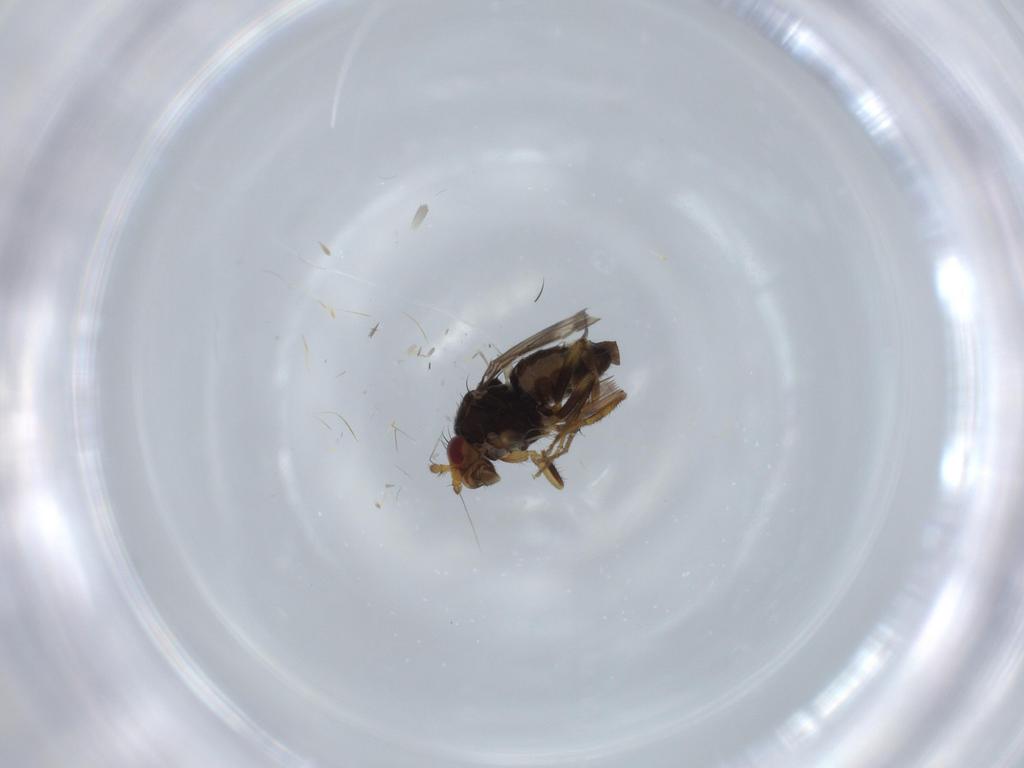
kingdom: Animalia
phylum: Arthropoda
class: Insecta
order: Diptera
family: Sphaeroceridae
